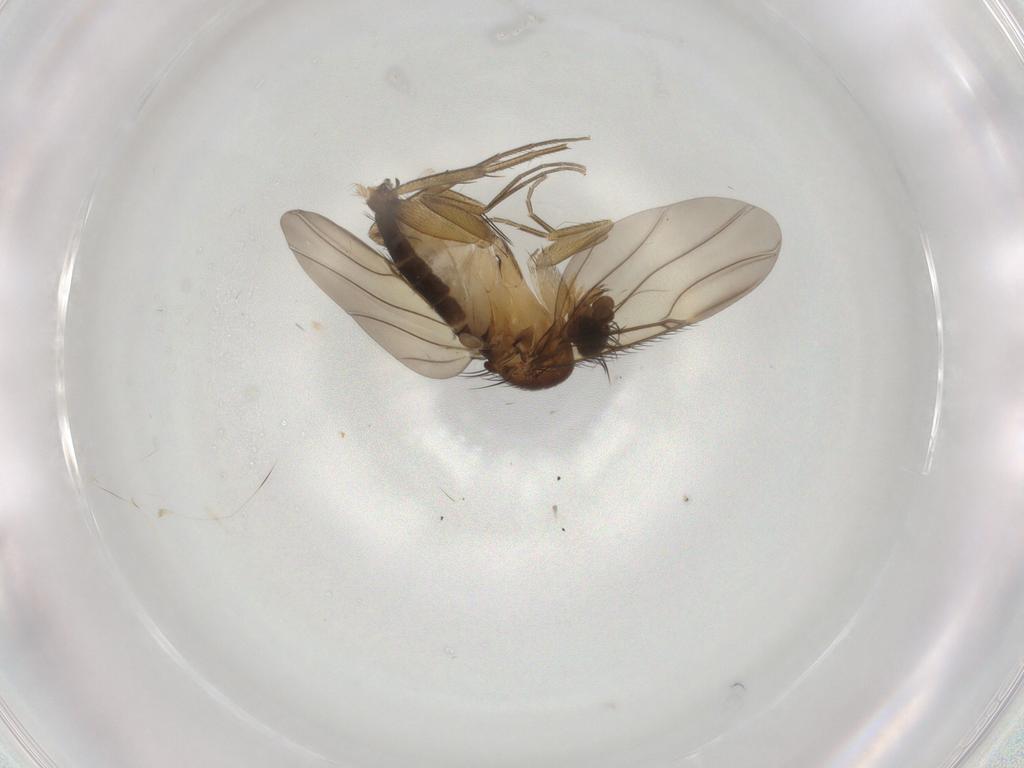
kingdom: Animalia
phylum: Arthropoda
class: Insecta
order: Diptera
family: Phoridae
